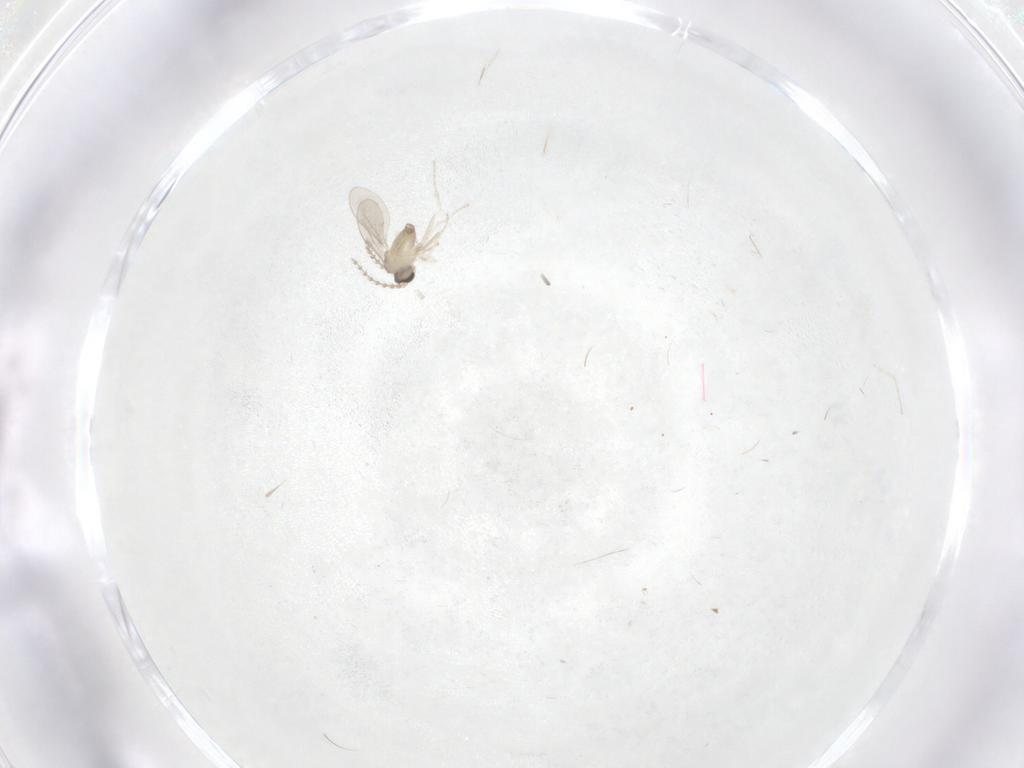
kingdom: Animalia
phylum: Arthropoda
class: Insecta
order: Diptera
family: Cecidomyiidae
